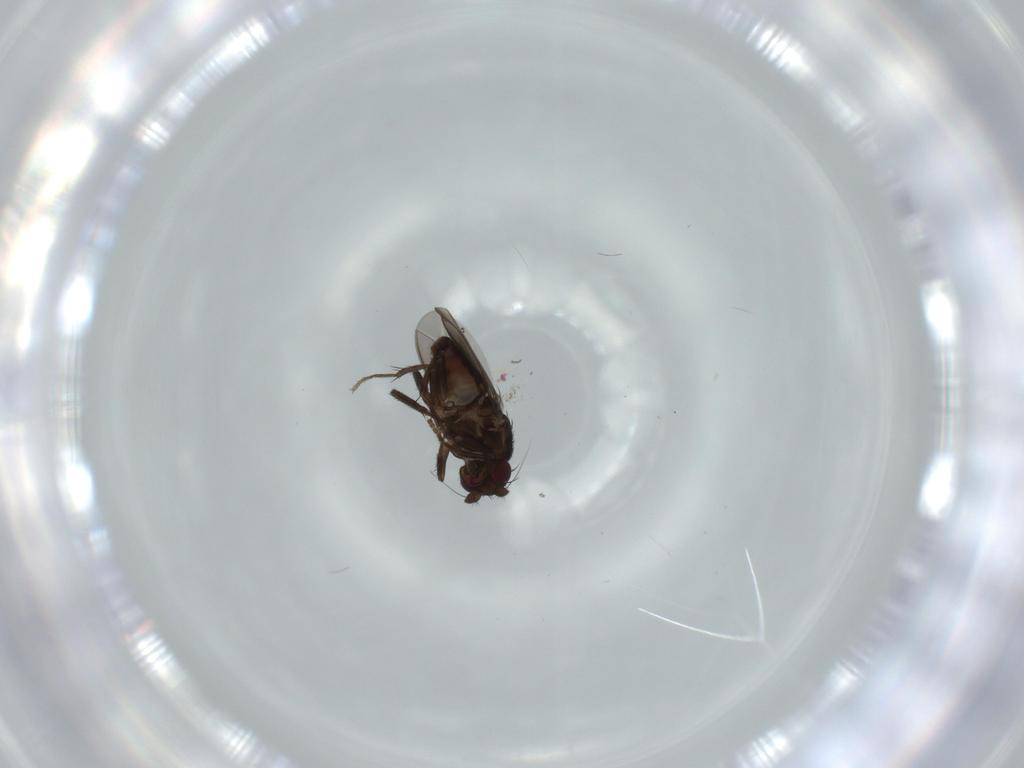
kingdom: Animalia
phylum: Arthropoda
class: Insecta
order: Diptera
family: Sphaeroceridae
